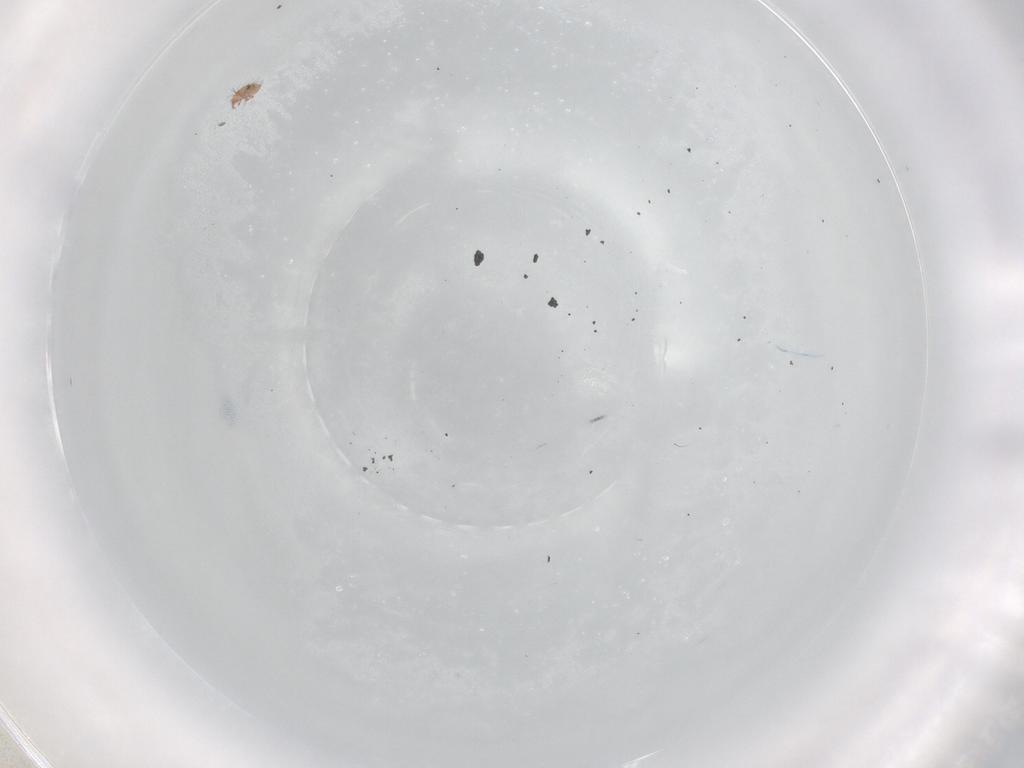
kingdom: Animalia
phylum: Arthropoda
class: Arachnida
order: Sarcoptiformes
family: Ceratozetidae
